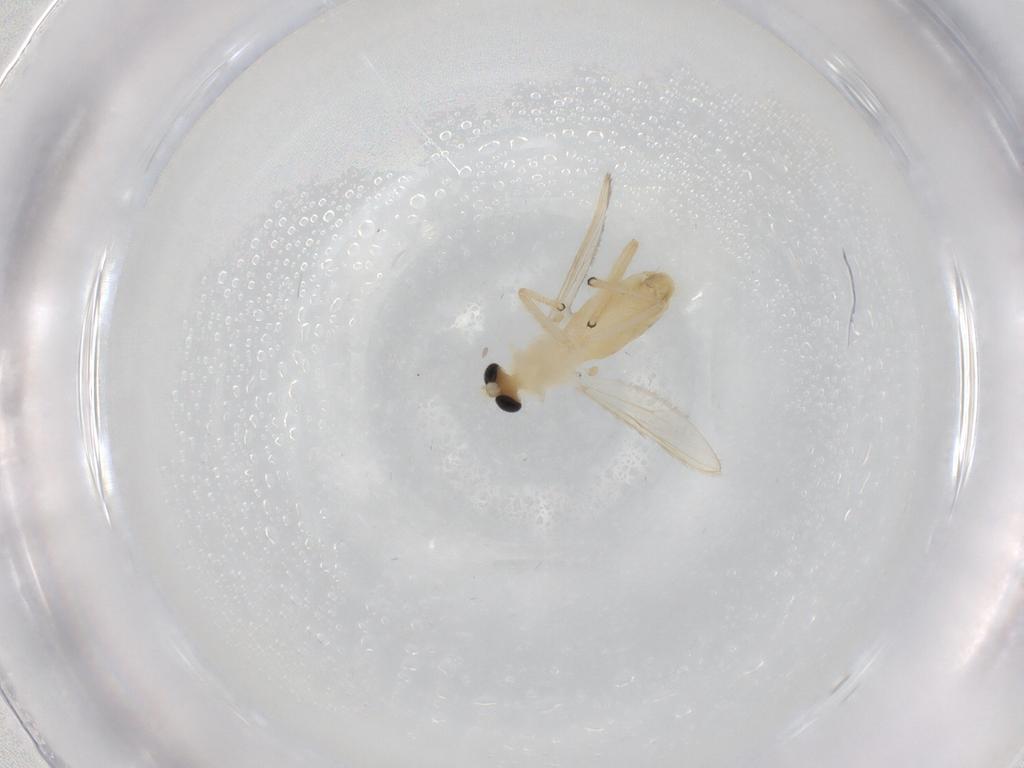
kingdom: Animalia
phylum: Arthropoda
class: Insecta
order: Diptera
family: Chironomidae
